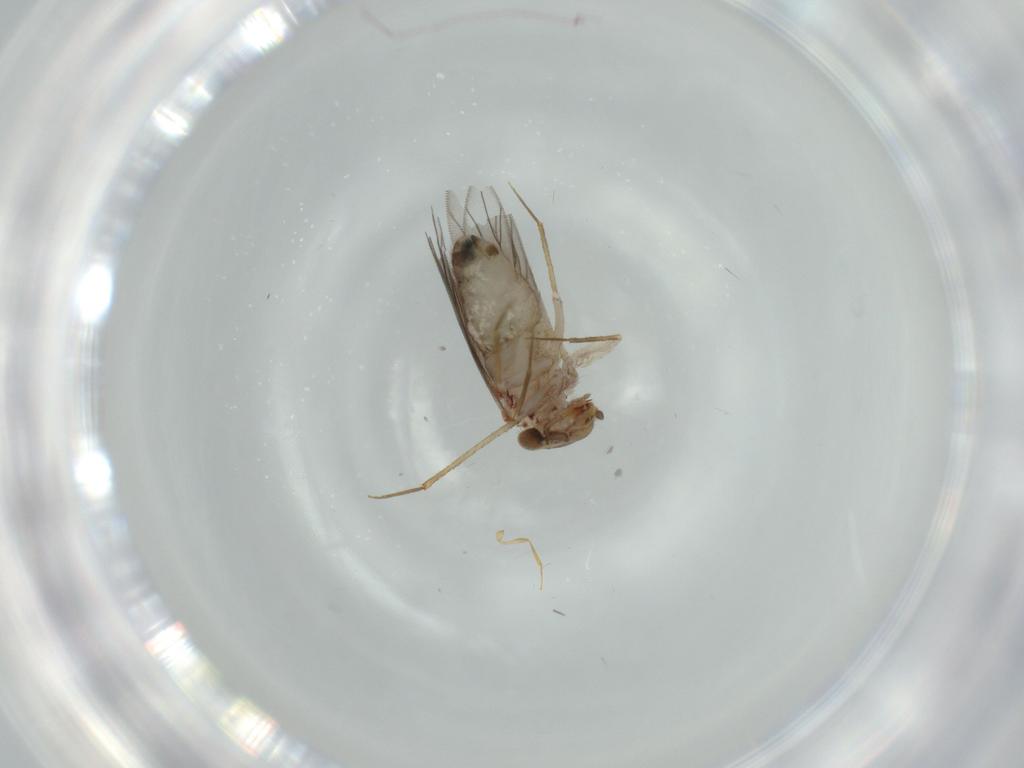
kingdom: Animalia
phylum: Arthropoda
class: Insecta
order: Psocodea
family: Lepidopsocidae
